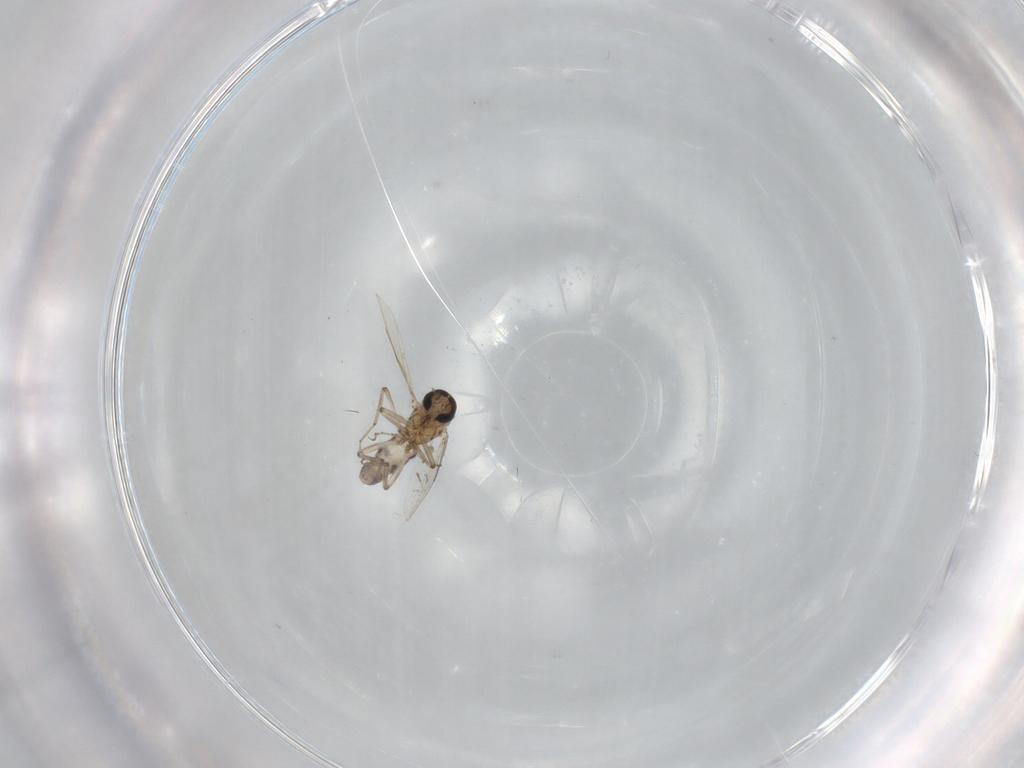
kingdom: Animalia
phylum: Arthropoda
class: Insecta
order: Diptera
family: Ceratopogonidae
